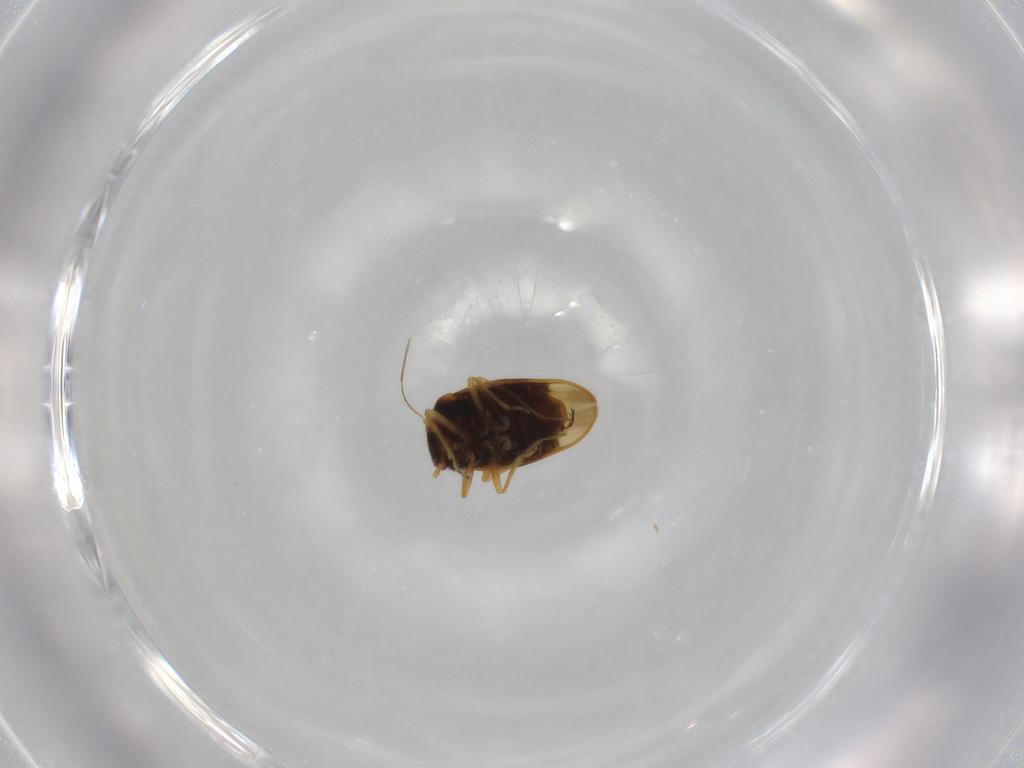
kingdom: Animalia
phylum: Arthropoda
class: Insecta
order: Hemiptera
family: Schizopteridae
